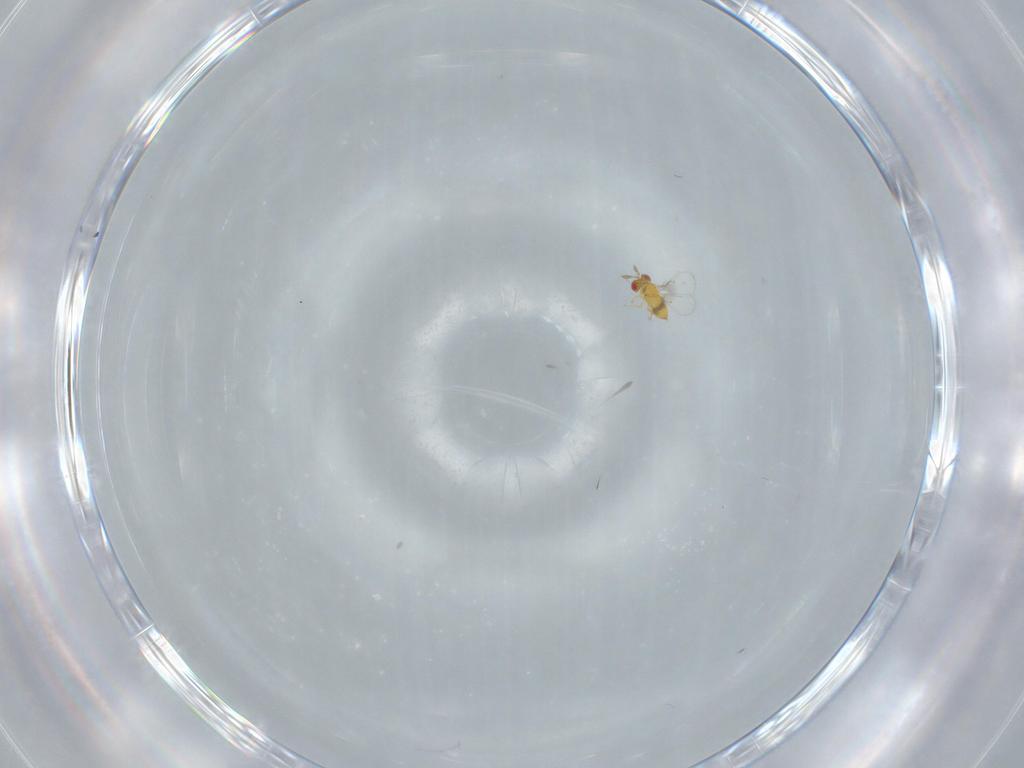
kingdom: Animalia
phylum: Arthropoda
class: Insecta
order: Hymenoptera
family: Trichogrammatidae
